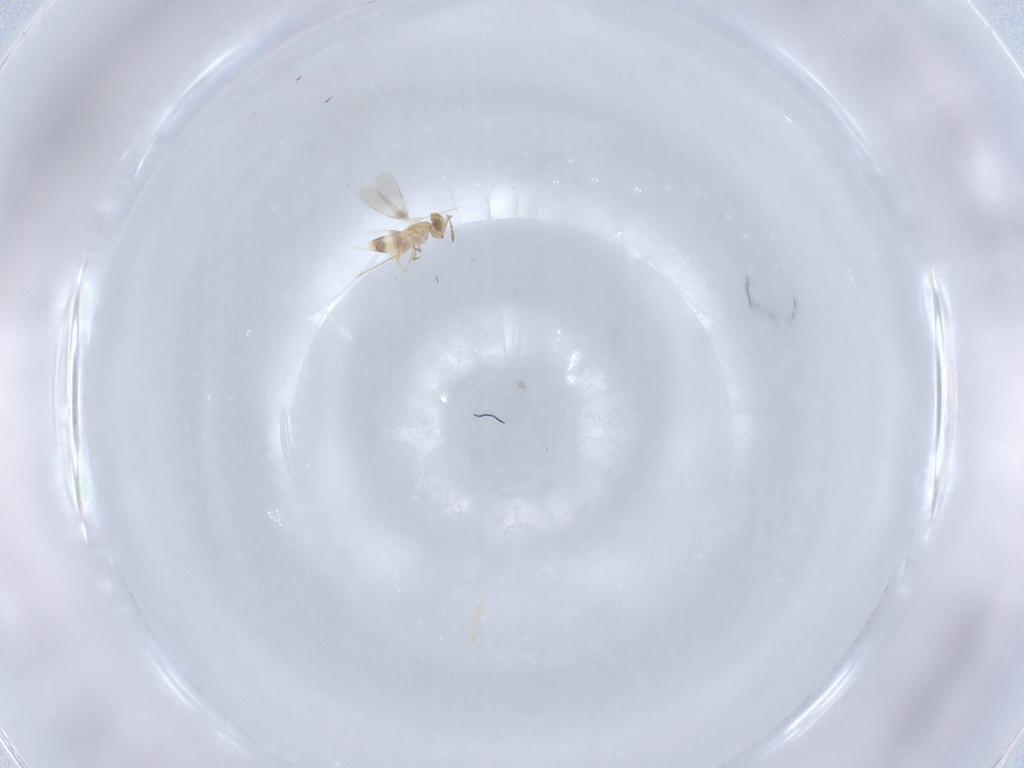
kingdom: Animalia
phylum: Arthropoda
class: Insecta
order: Hymenoptera
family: Aphelinidae
